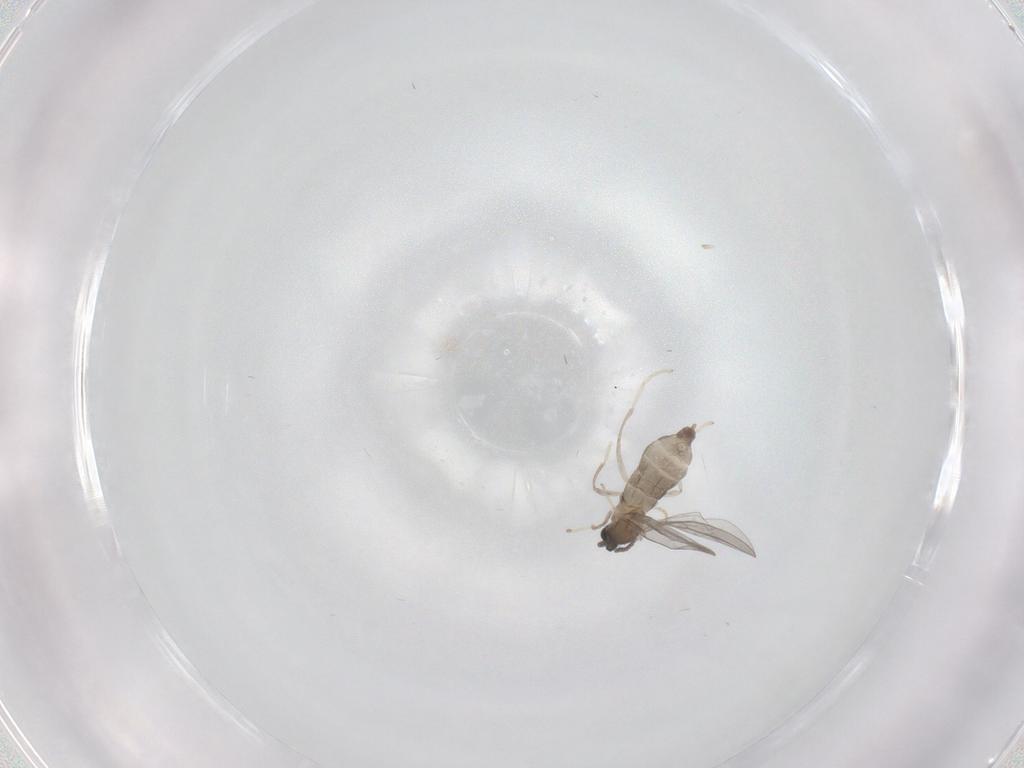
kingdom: Animalia
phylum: Arthropoda
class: Insecta
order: Diptera
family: Cecidomyiidae
